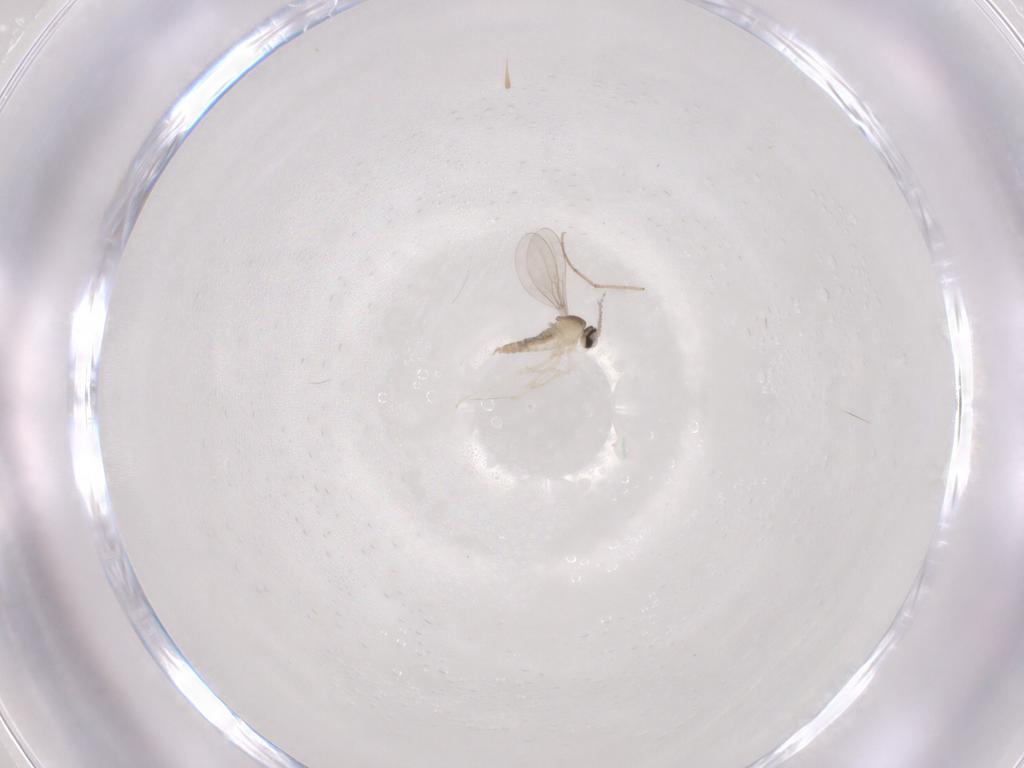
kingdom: Animalia
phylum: Arthropoda
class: Insecta
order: Diptera
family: Cecidomyiidae
